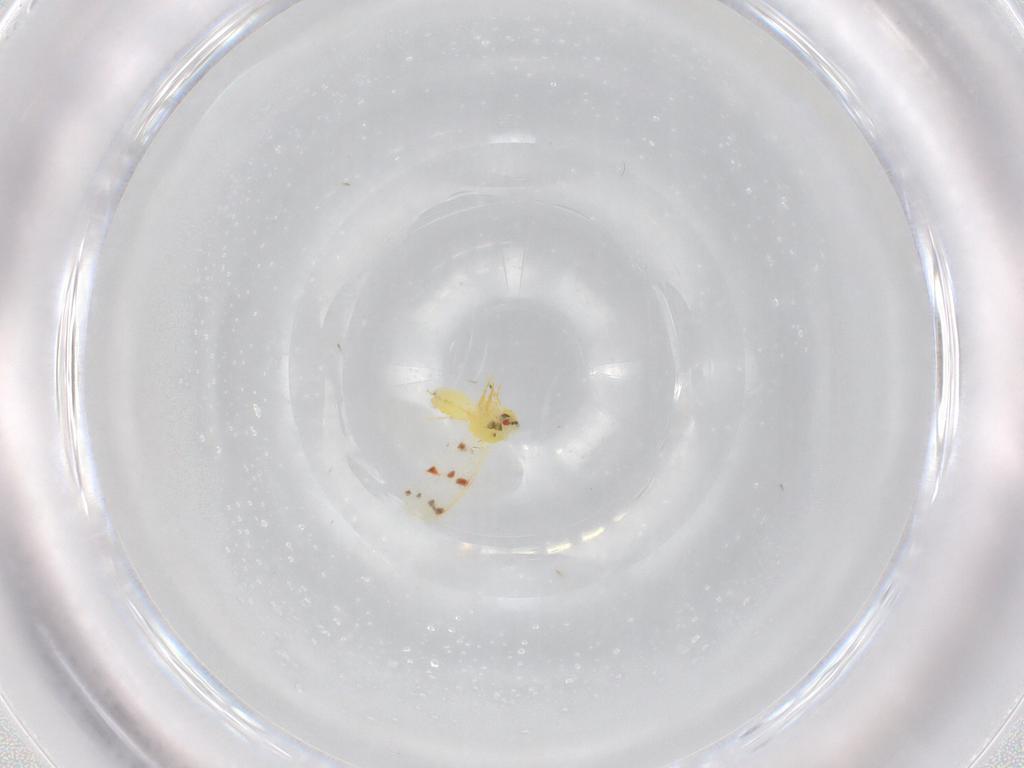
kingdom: Animalia
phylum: Arthropoda
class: Insecta
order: Hemiptera
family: Aleyrodidae
